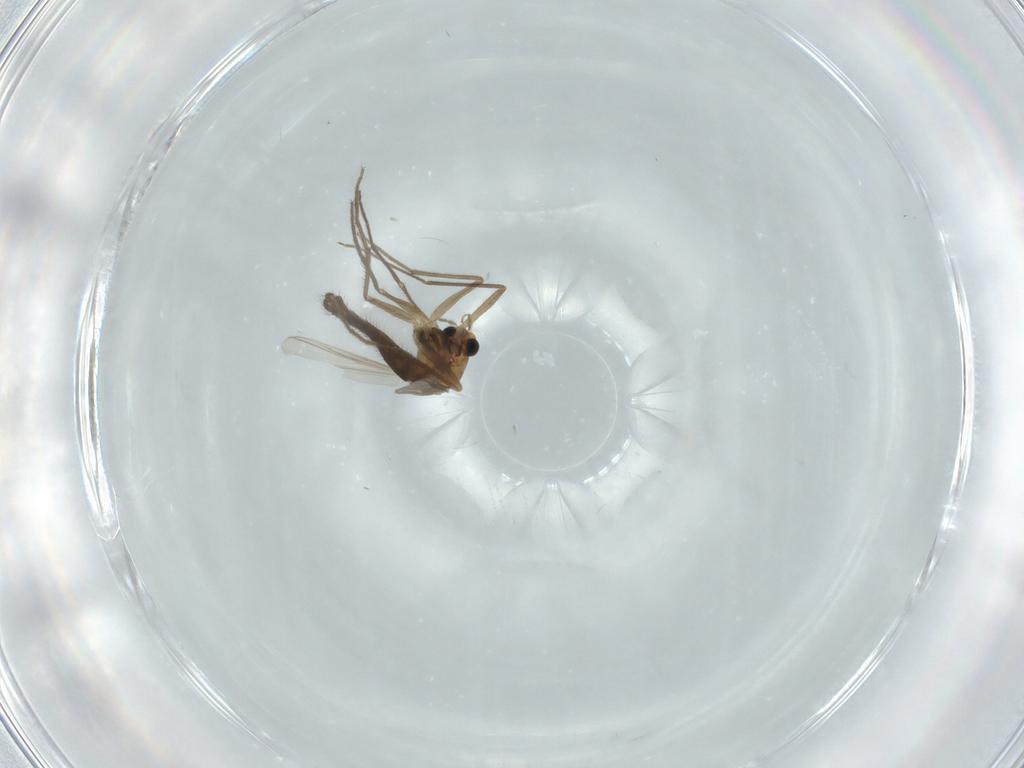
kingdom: Animalia
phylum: Arthropoda
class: Insecta
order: Diptera
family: Chironomidae
